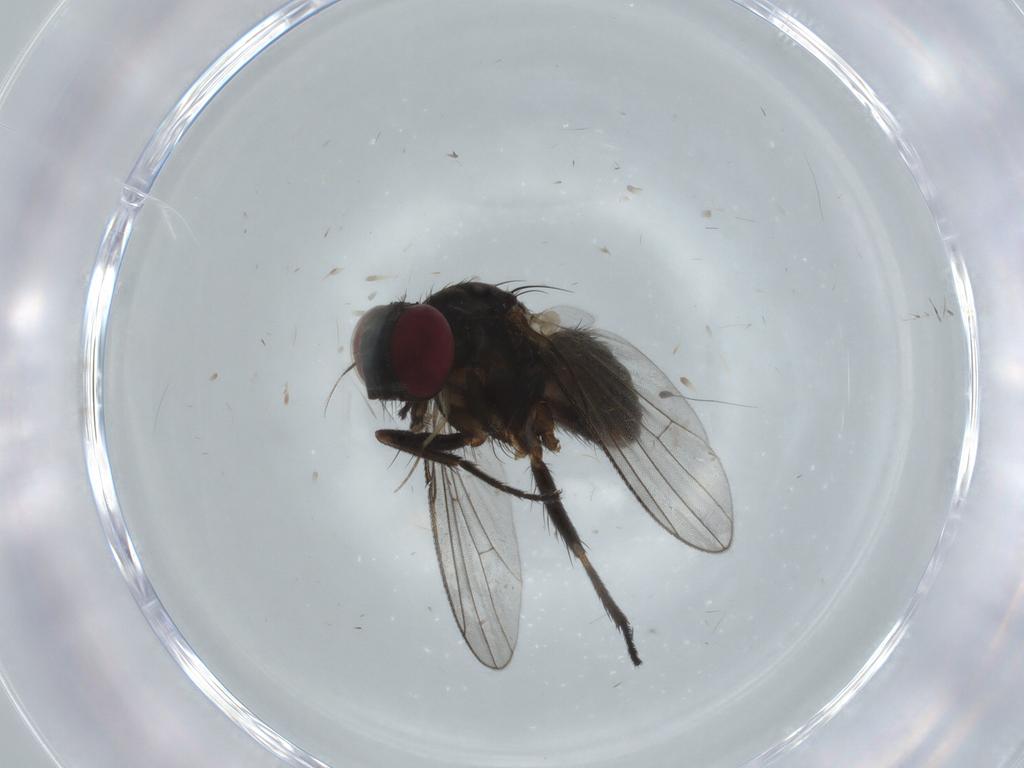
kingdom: Animalia
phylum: Arthropoda
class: Insecta
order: Diptera
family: Muscidae
